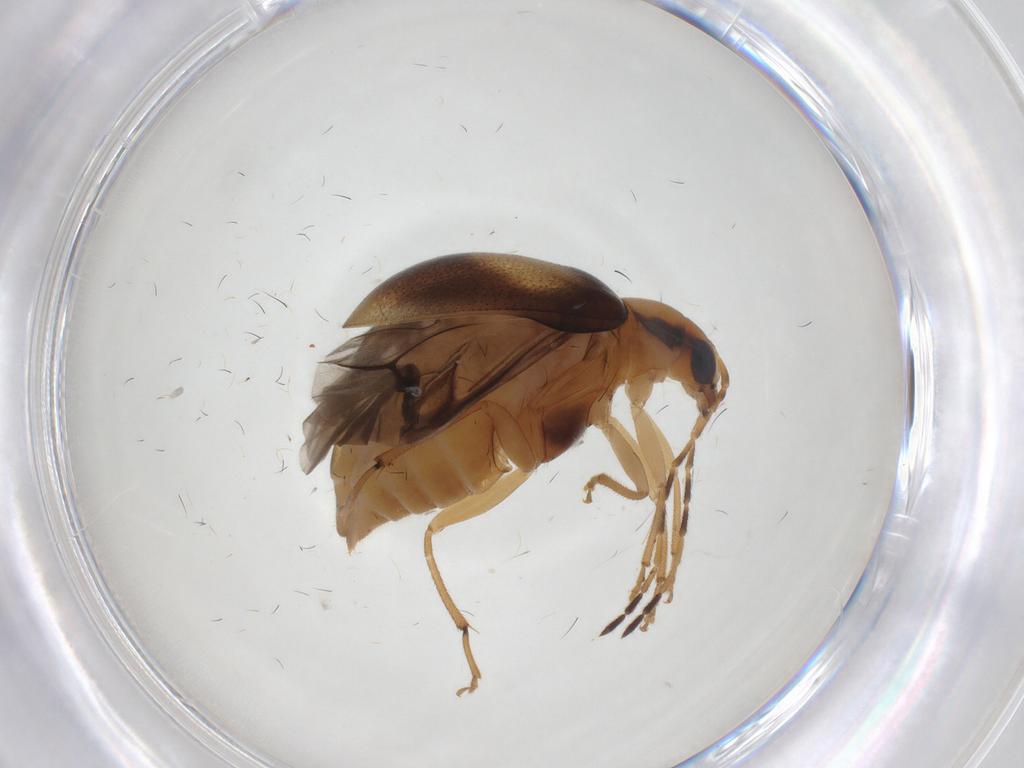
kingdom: Animalia
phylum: Arthropoda
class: Insecta
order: Coleoptera
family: Chrysomelidae
